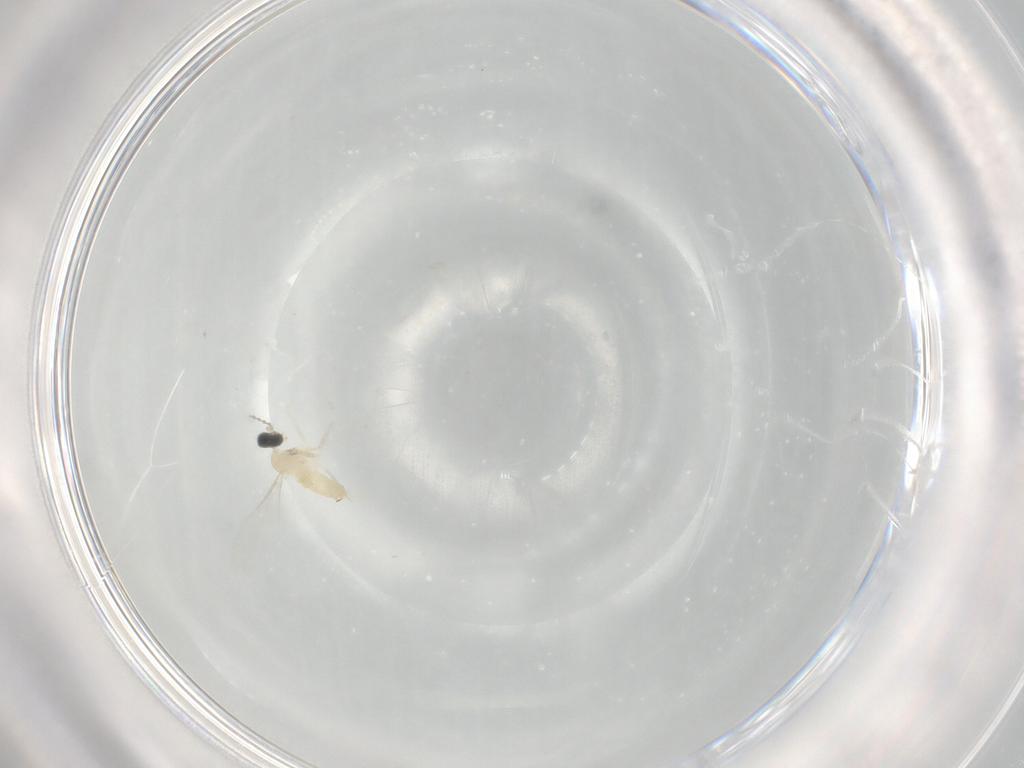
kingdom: Animalia
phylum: Arthropoda
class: Insecta
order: Diptera
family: Cecidomyiidae
